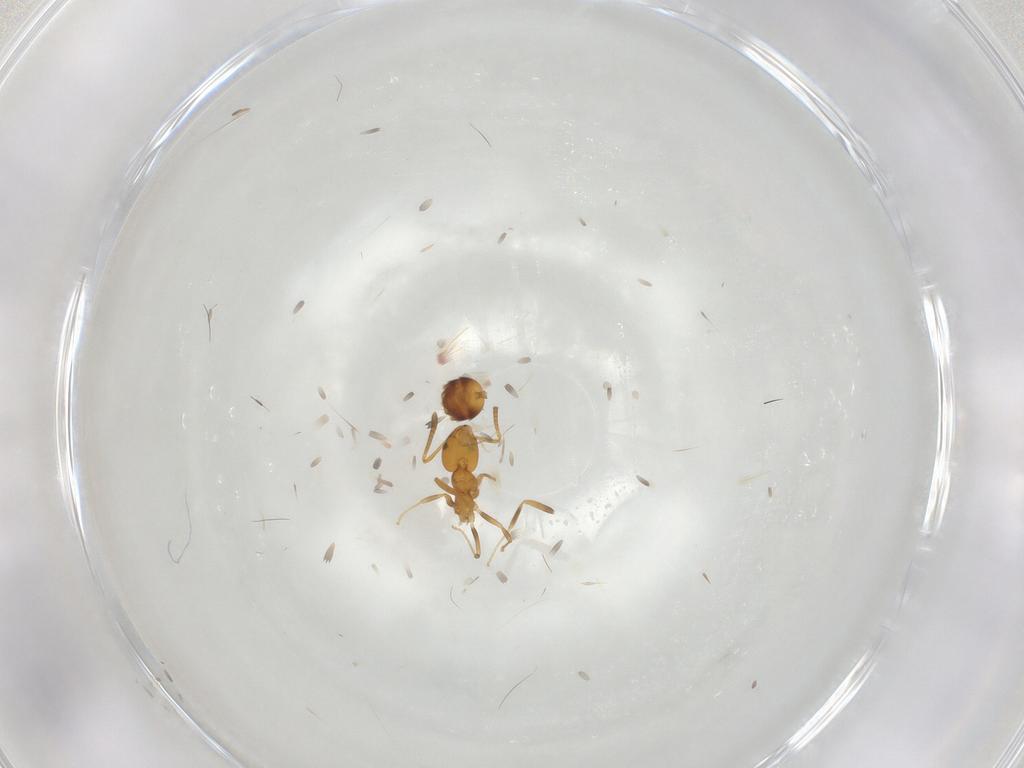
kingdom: Animalia
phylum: Arthropoda
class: Insecta
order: Hymenoptera
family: Formicidae
